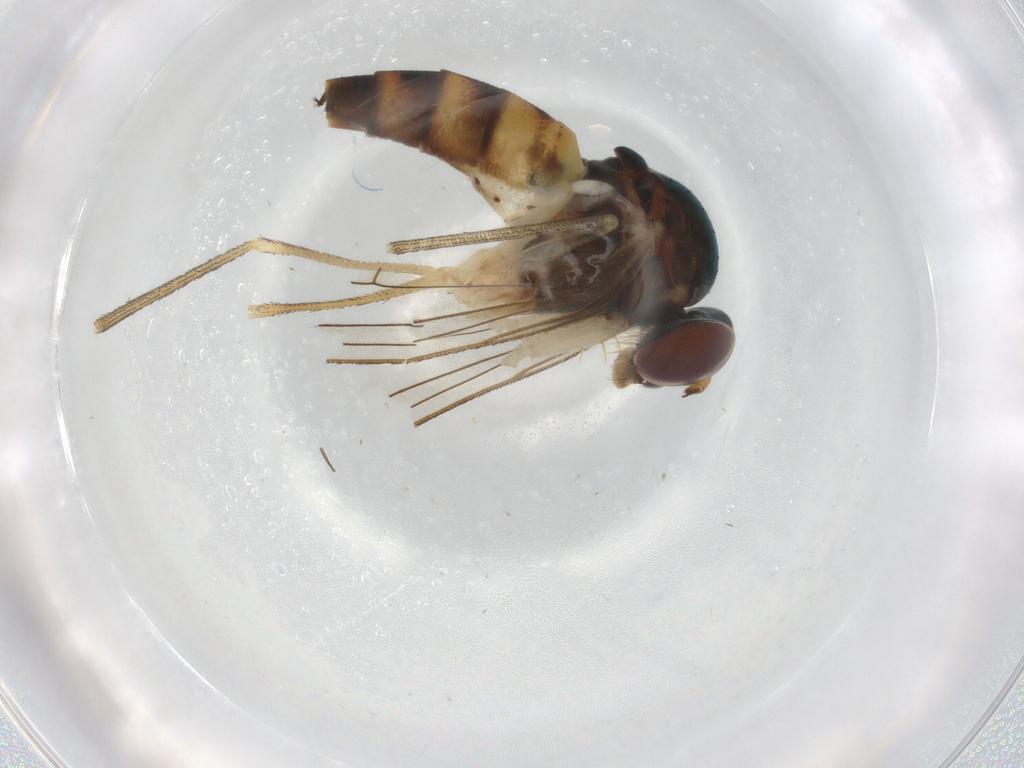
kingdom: Animalia
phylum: Arthropoda
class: Insecta
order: Diptera
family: Dolichopodidae
